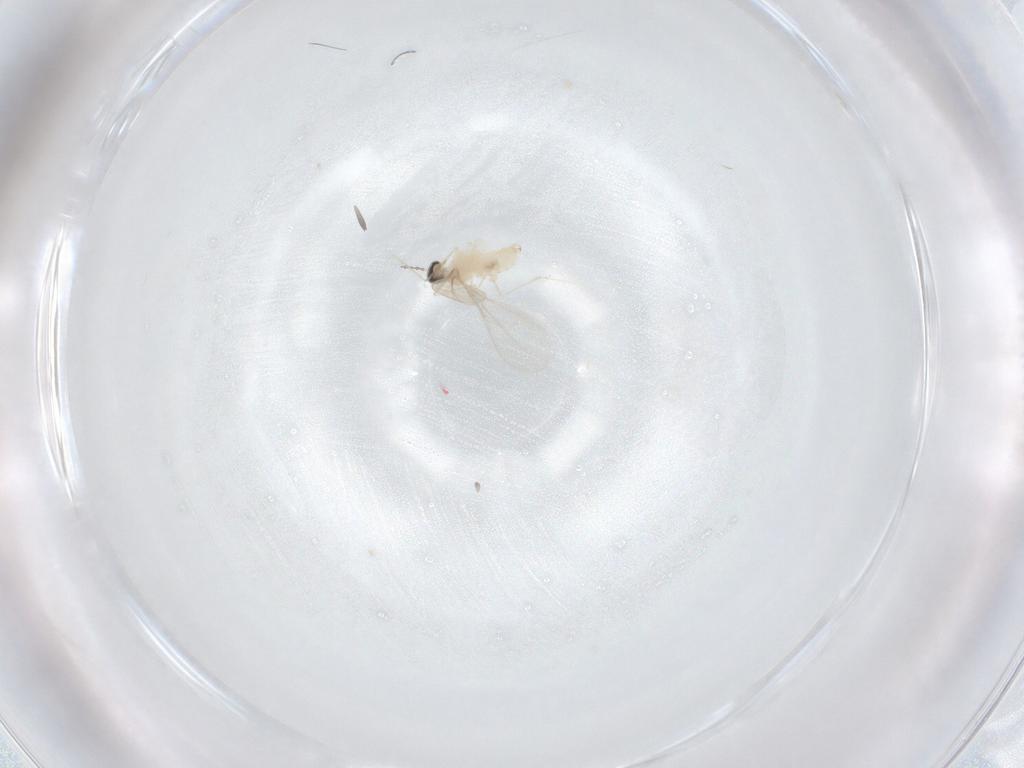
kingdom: Animalia
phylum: Arthropoda
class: Insecta
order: Diptera
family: Cecidomyiidae
